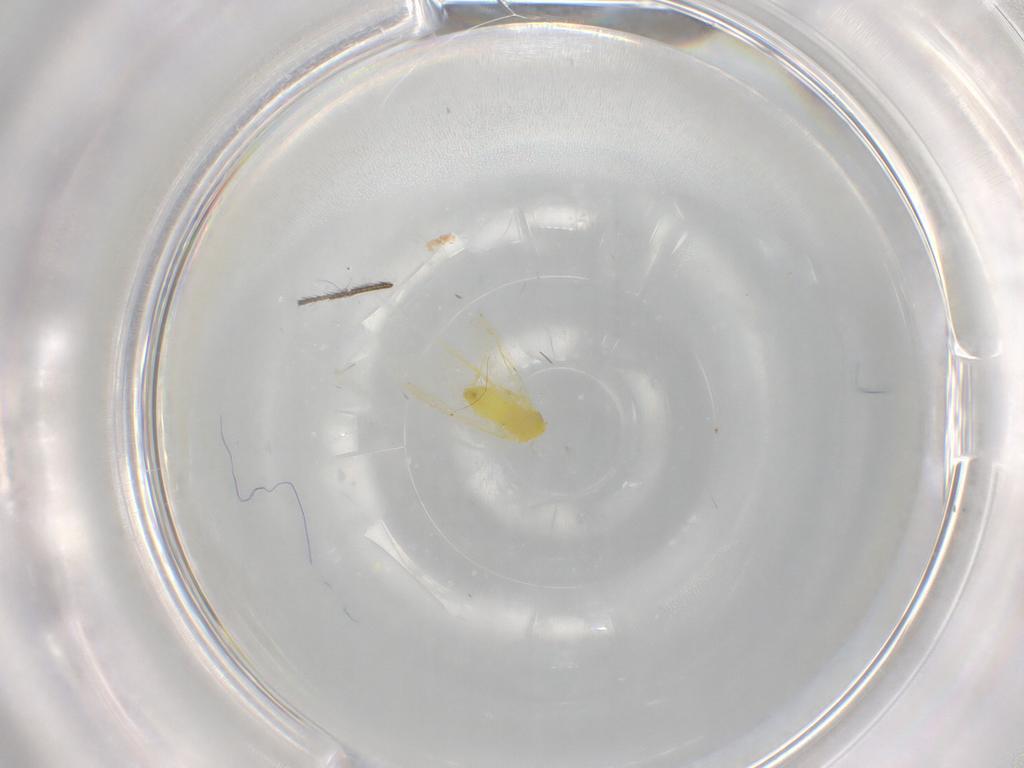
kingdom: Animalia
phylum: Arthropoda
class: Insecta
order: Hemiptera
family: Aleyrodidae
